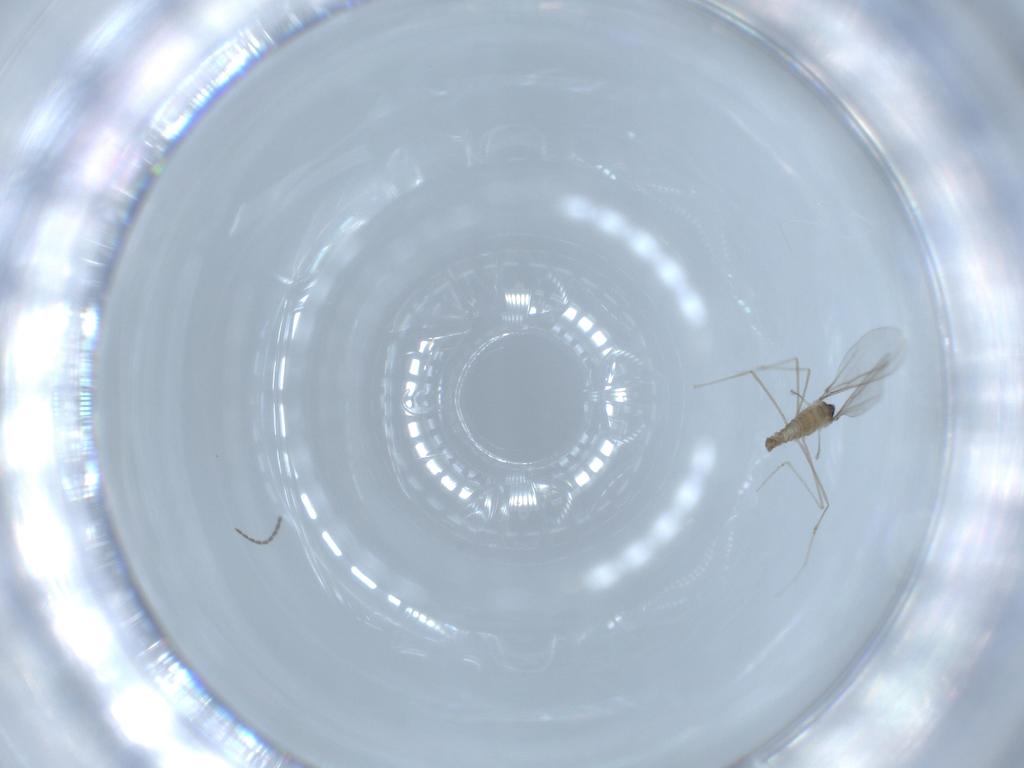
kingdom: Animalia
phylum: Arthropoda
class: Insecta
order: Diptera
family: Cecidomyiidae
